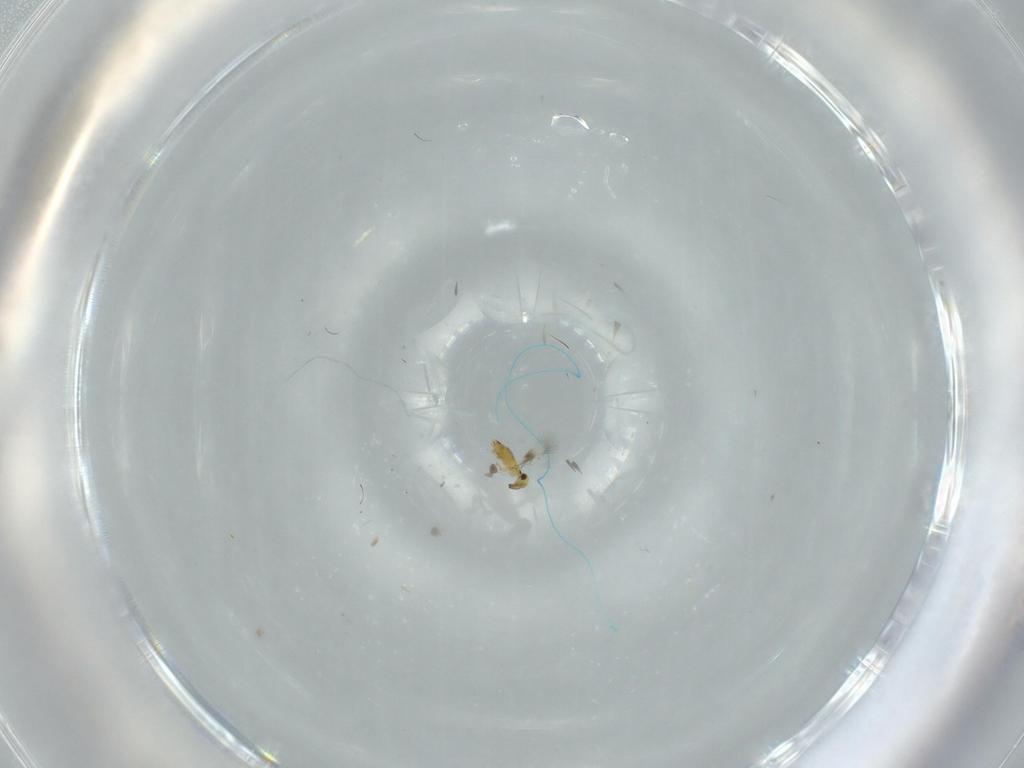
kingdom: Animalia
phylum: Arthropoda
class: Insecta
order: Hymenoptera
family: Signiphoridae
